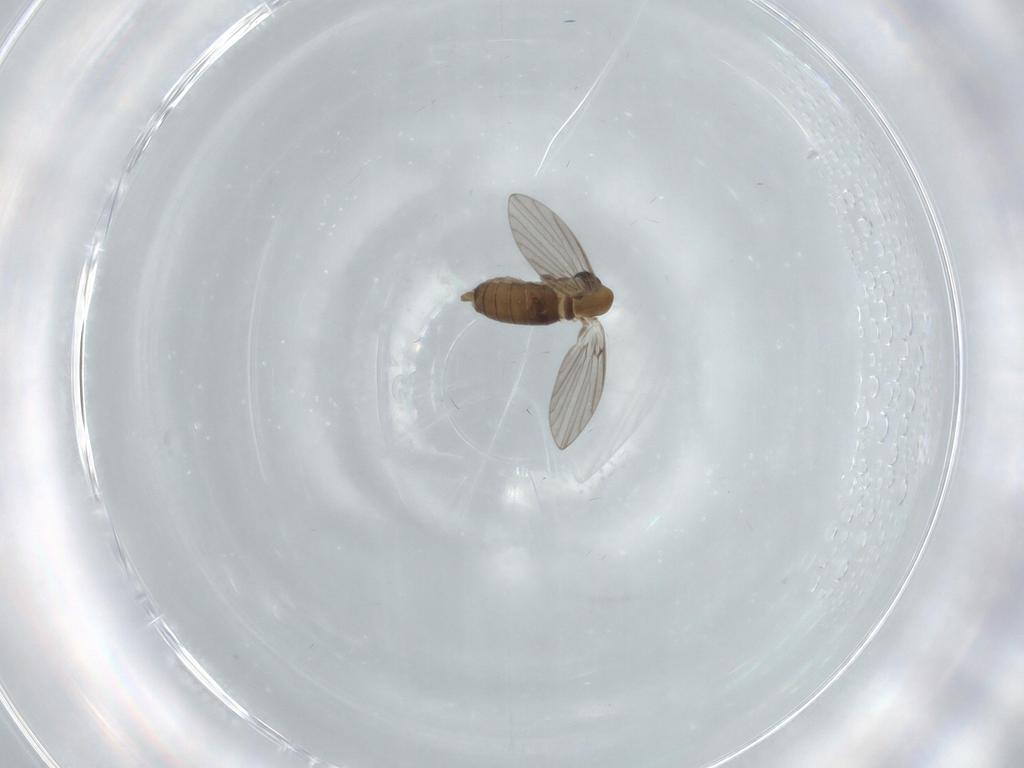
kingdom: Animalia
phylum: Arthropoda
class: Insecta
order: Diptera
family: Psychodidae
